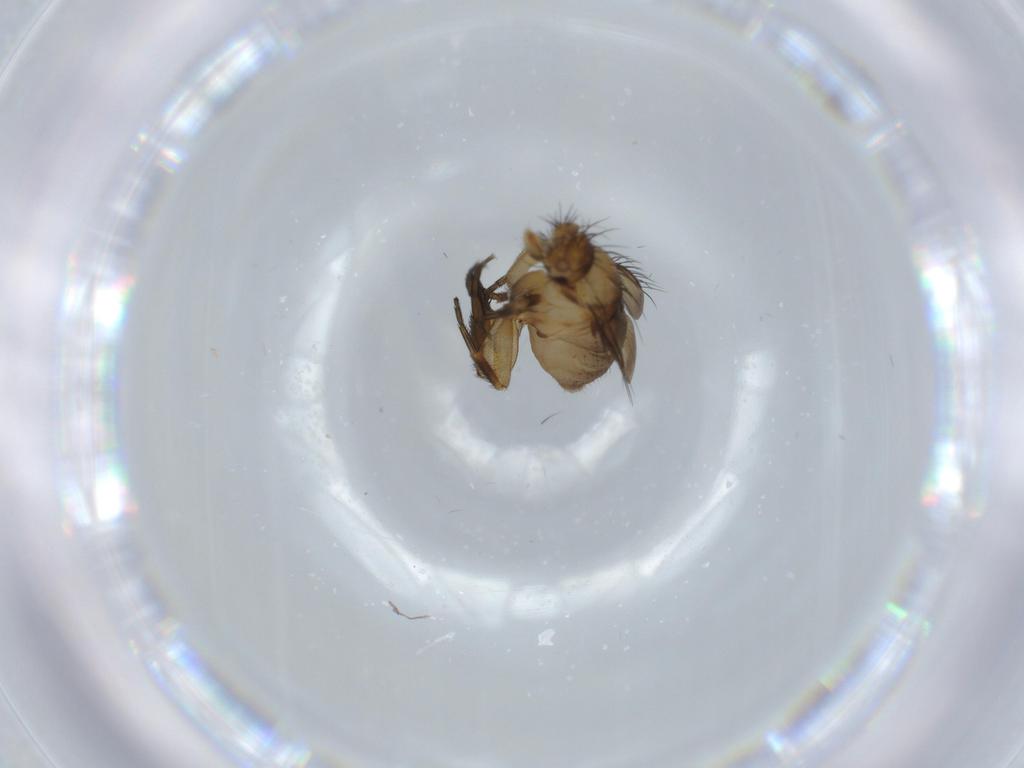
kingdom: Animalia
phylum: Arthropoda
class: Insecta
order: Diptera
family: Phoridae
